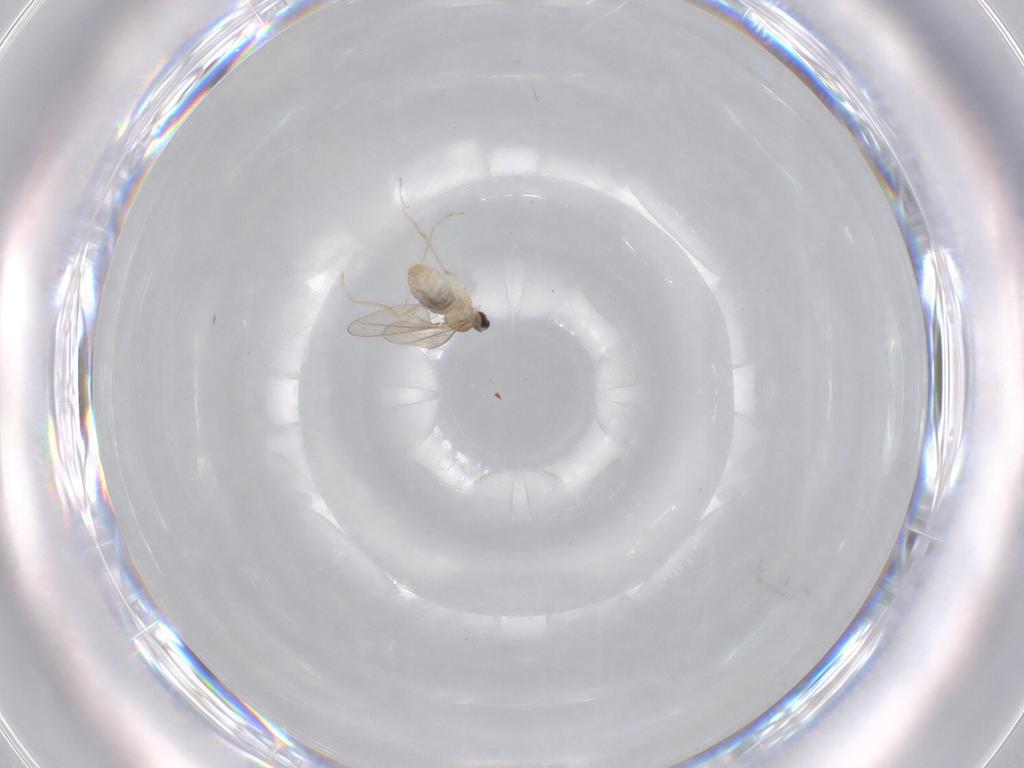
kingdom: Animalia
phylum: Arthropoda
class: Insecta
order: Diptera
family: Cecidomyiidae
